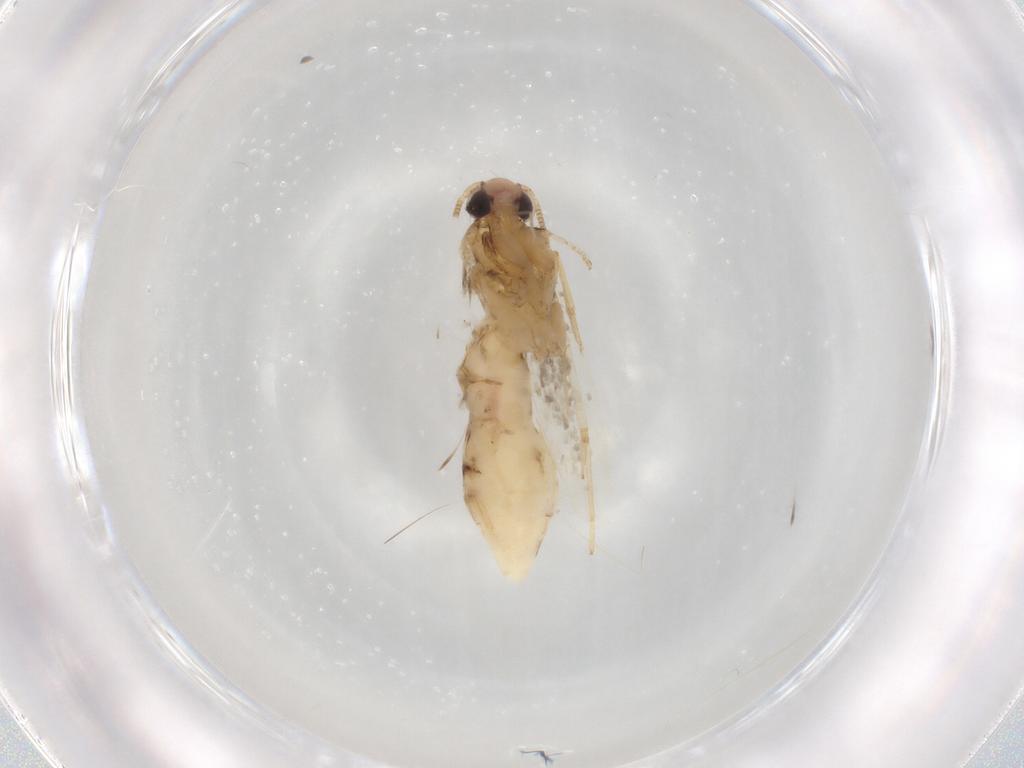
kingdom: Animalia
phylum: Arthropoda
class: Insecta
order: Lepidoptera
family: Tineidae
